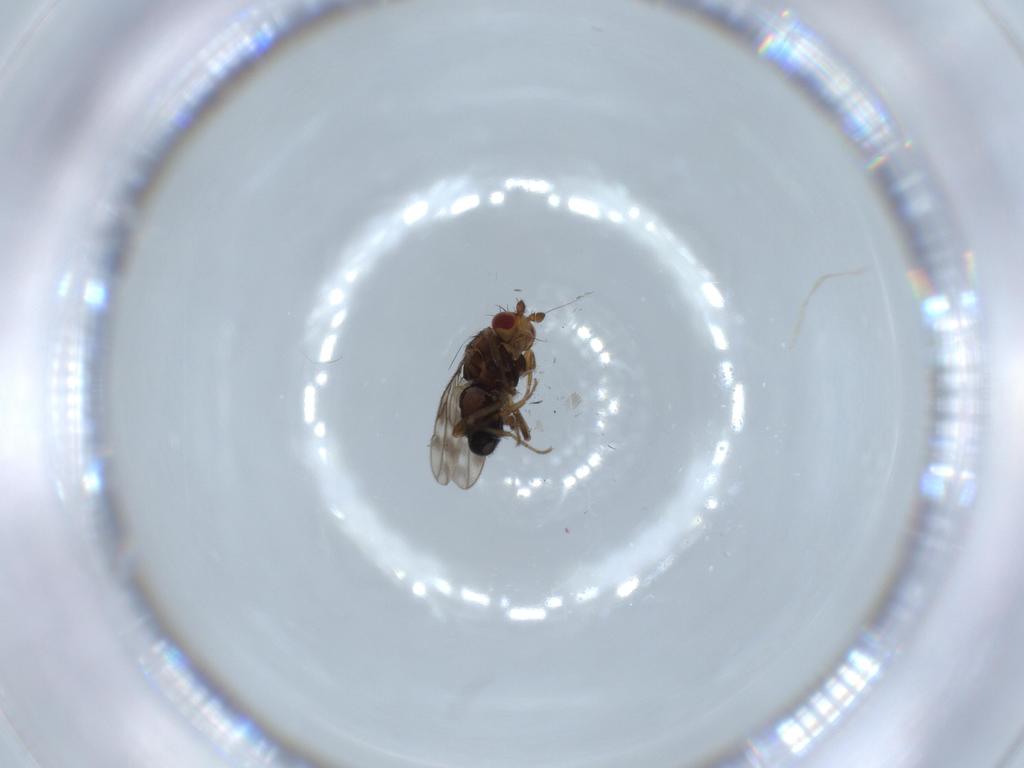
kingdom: Animalia
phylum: Arthropoda
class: Insecta
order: Diptera
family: Sphaeroceridae
